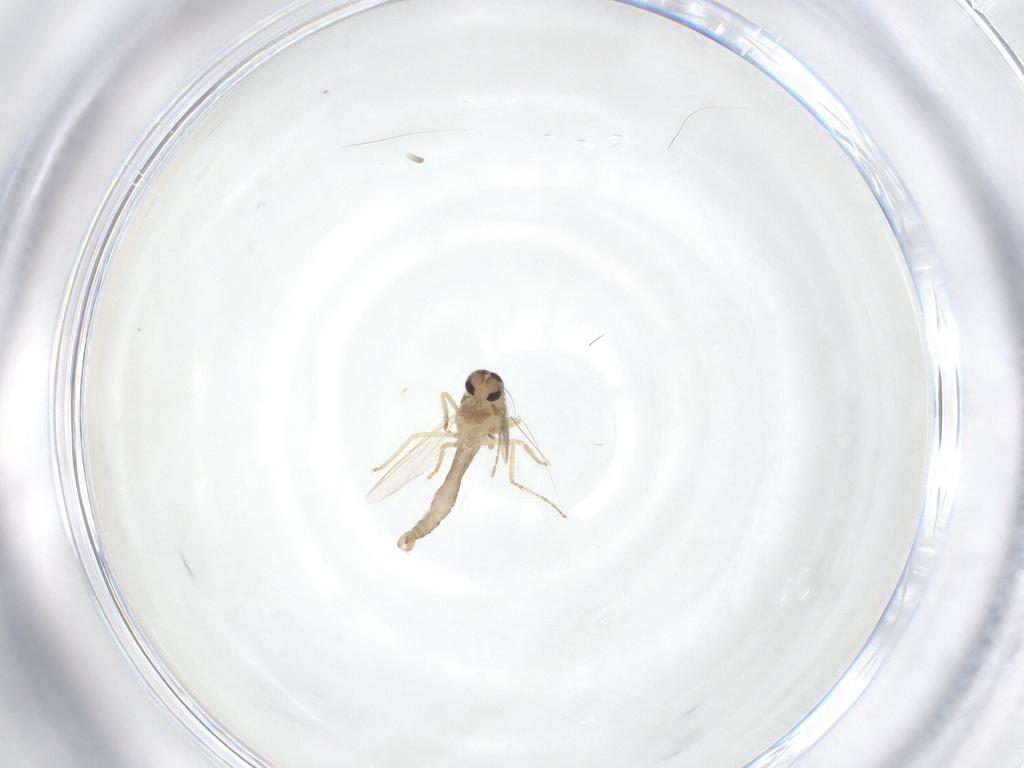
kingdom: Animalia
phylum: Arthropoda
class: Insecta
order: Diptera
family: Ceratopogonidae
